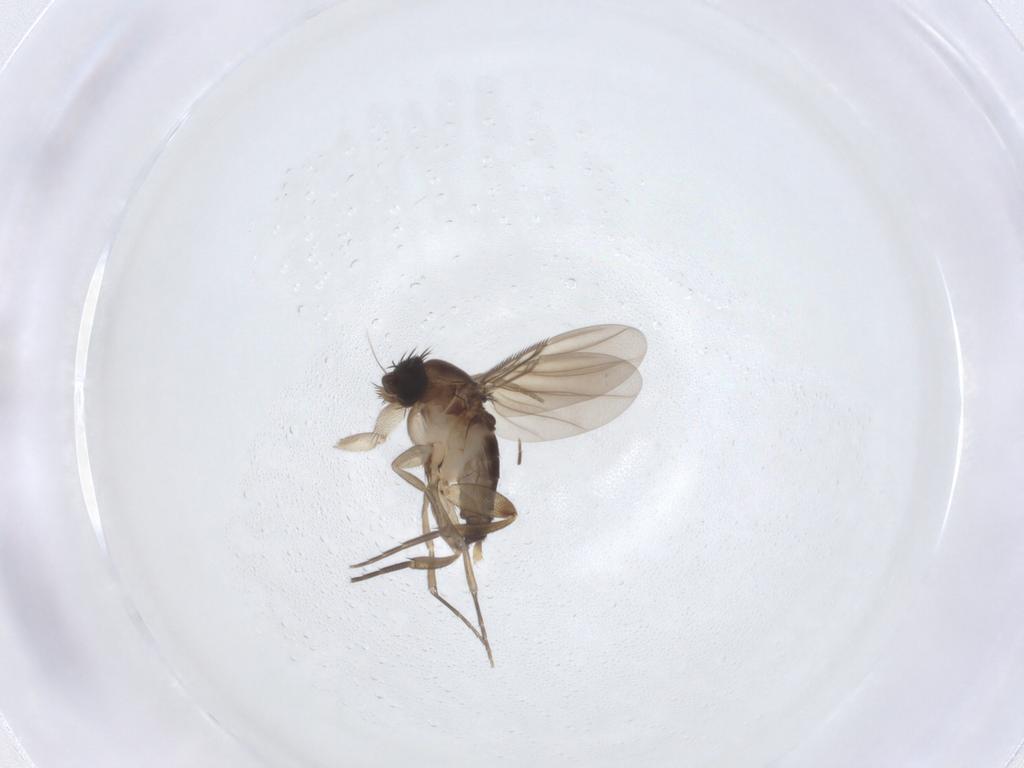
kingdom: Animalia
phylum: Arthropoda
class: Insecta
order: Diptera
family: Phoridae
